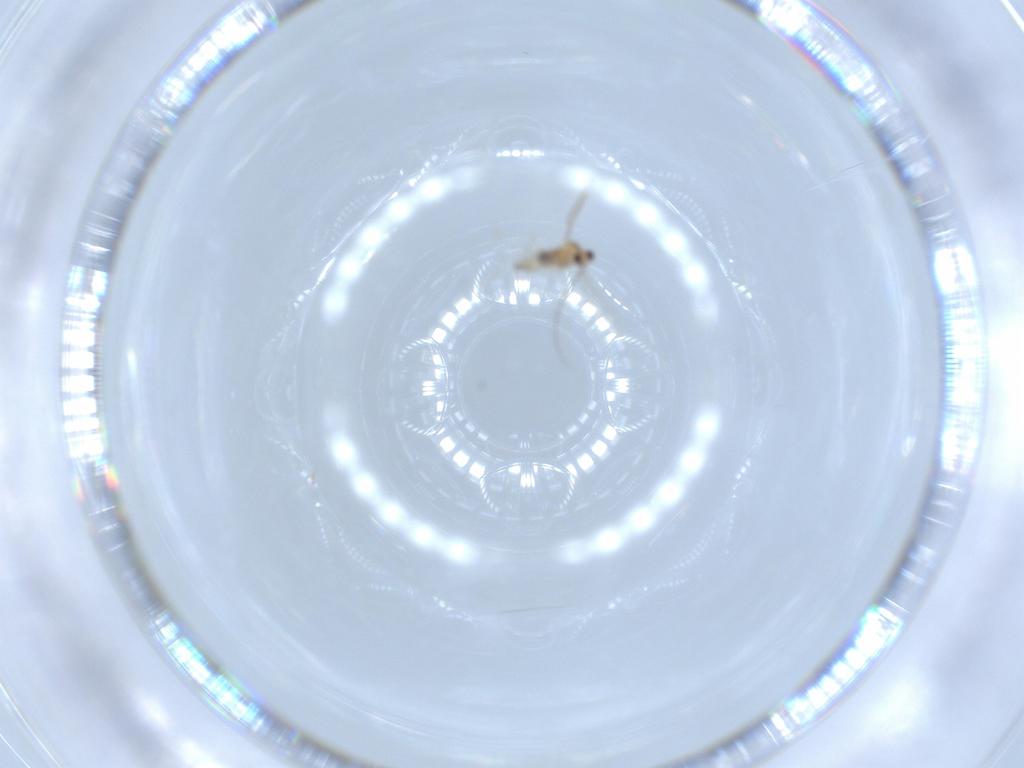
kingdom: Animalia
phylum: Arthropoda
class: Insecta
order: Diptera
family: Cecidomyiidae
